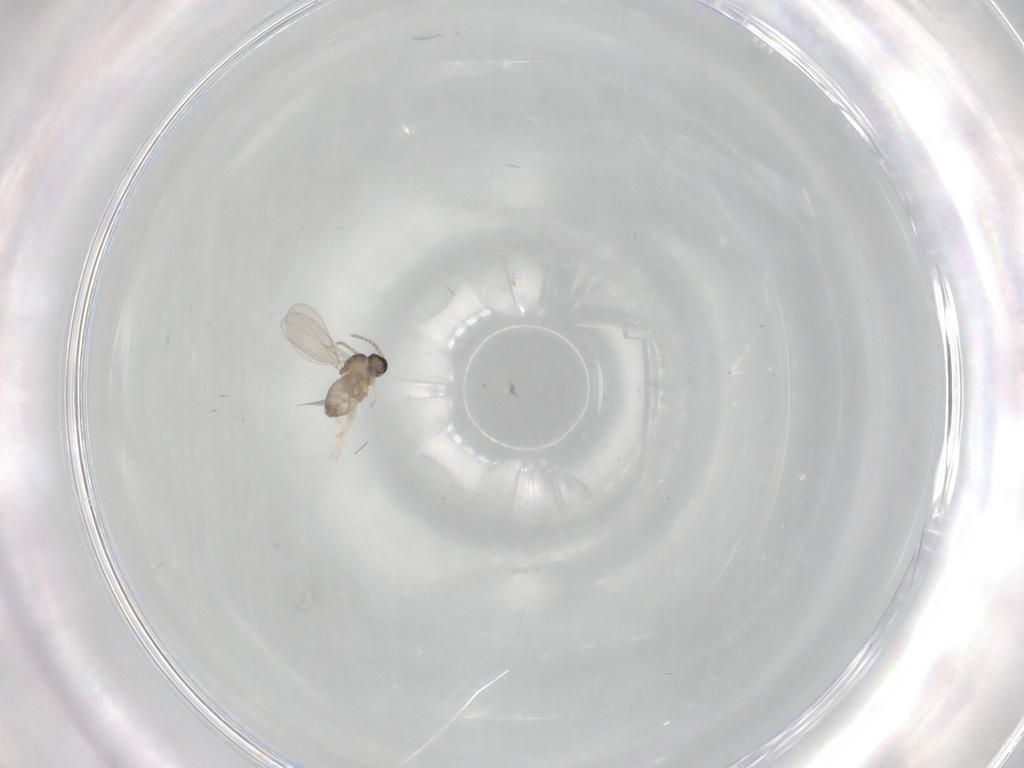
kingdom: Animalia
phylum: Arthropoda
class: Insecta
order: Diptera
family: Cecidomyiidae
